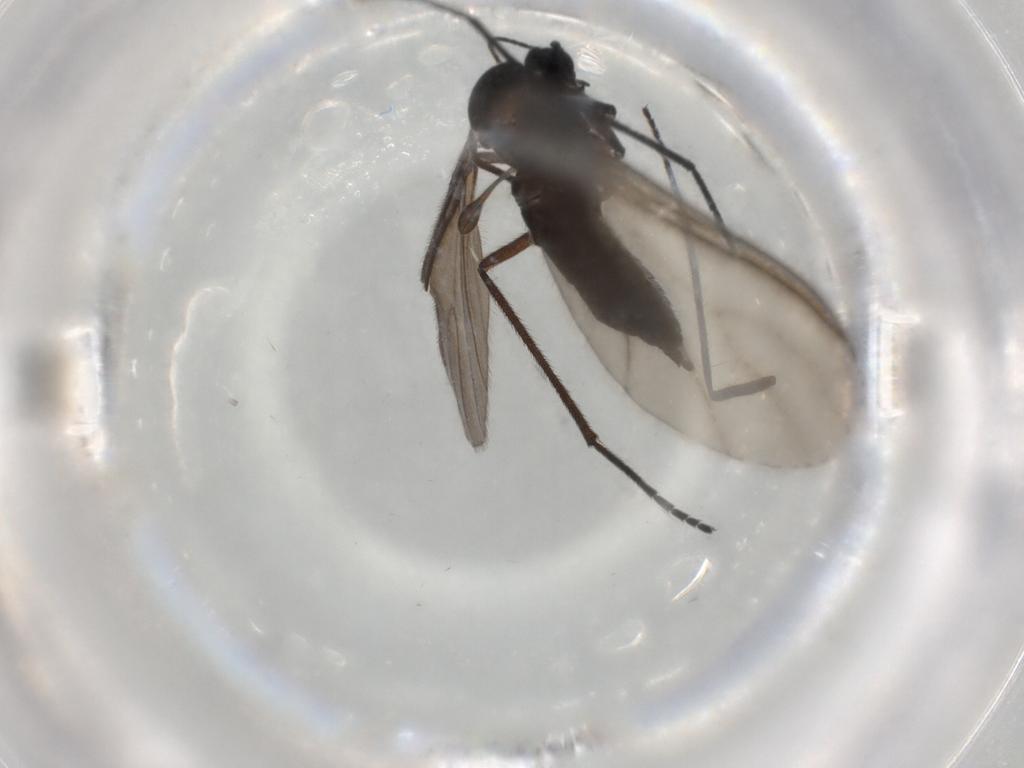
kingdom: Animalia
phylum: Arthropoda
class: Insecta
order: Diptera
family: Sciaridae
